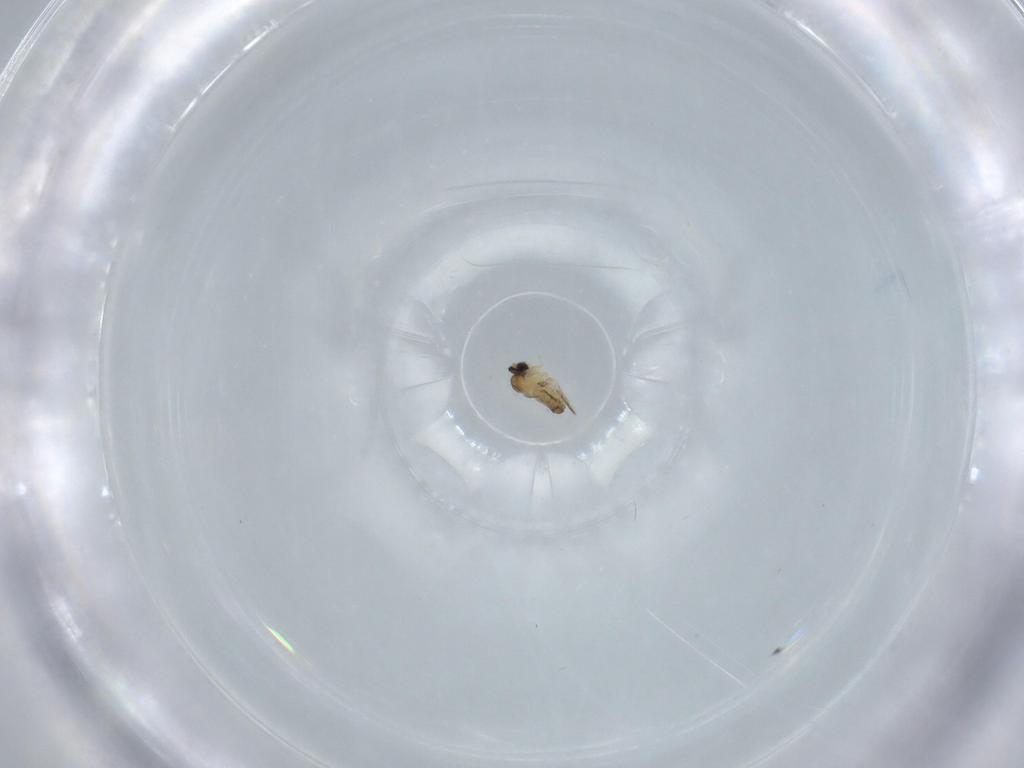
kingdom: Animalia
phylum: Arthropoda
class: Insecta
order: Diptera
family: Cecidomyiidae
